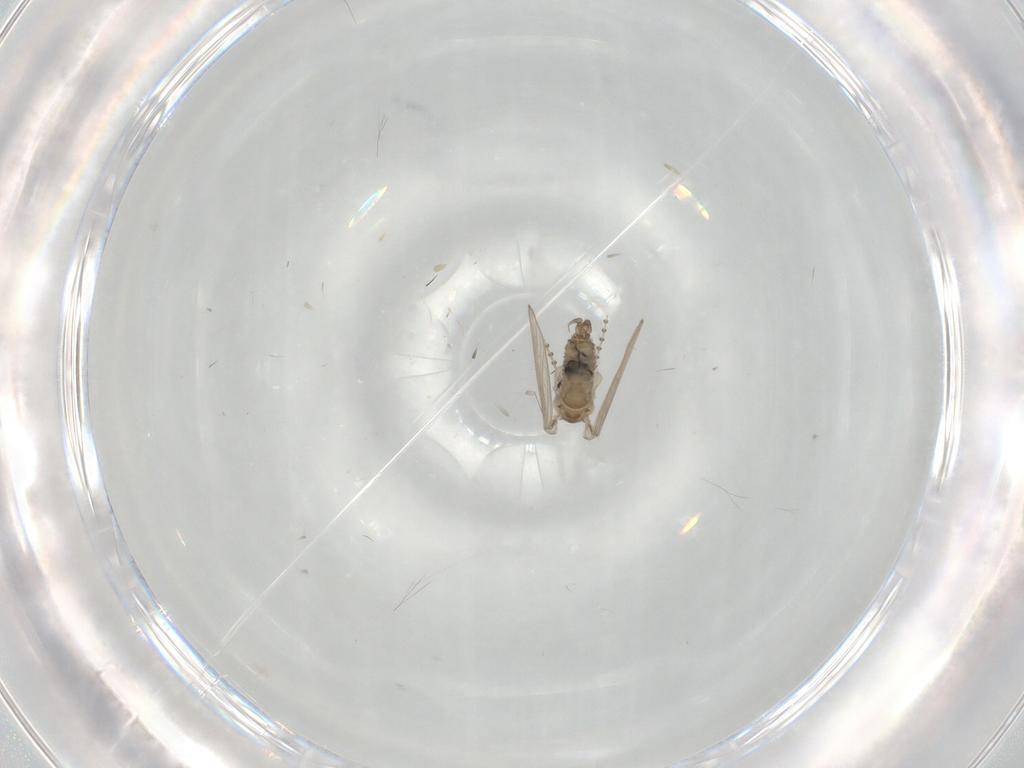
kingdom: Animalia
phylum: Arthropoda
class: Insecta
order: Diptera
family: Psychodidae
